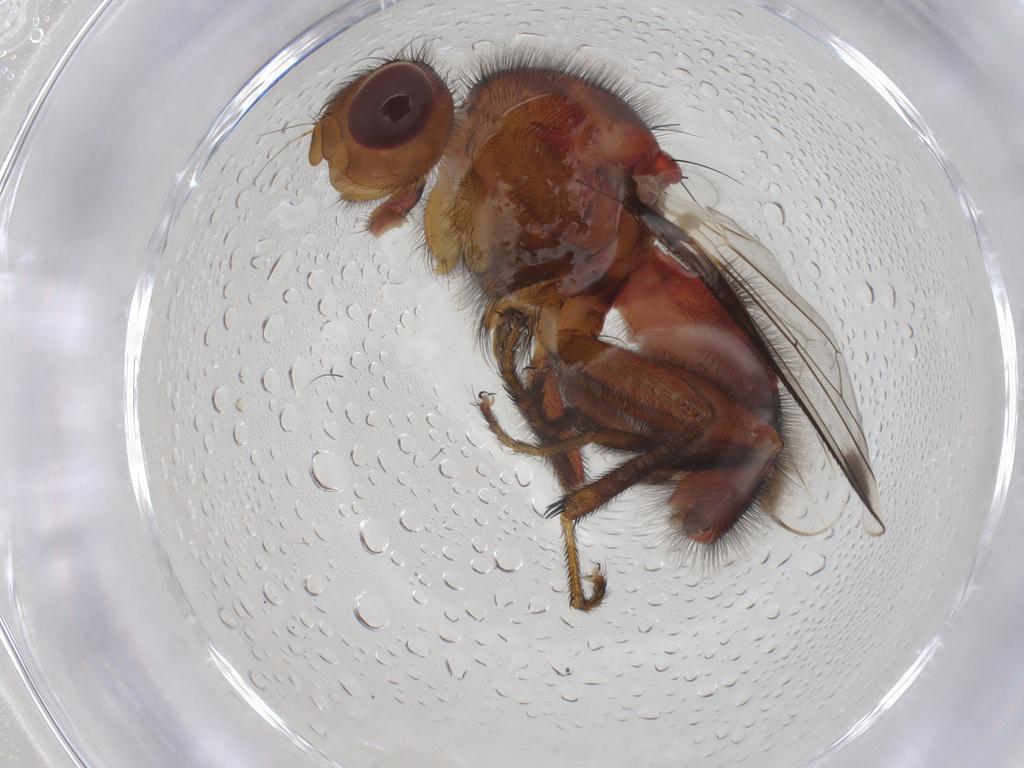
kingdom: Animalia
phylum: Arthropoda
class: Insecta
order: Diptera
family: Richardiidae
